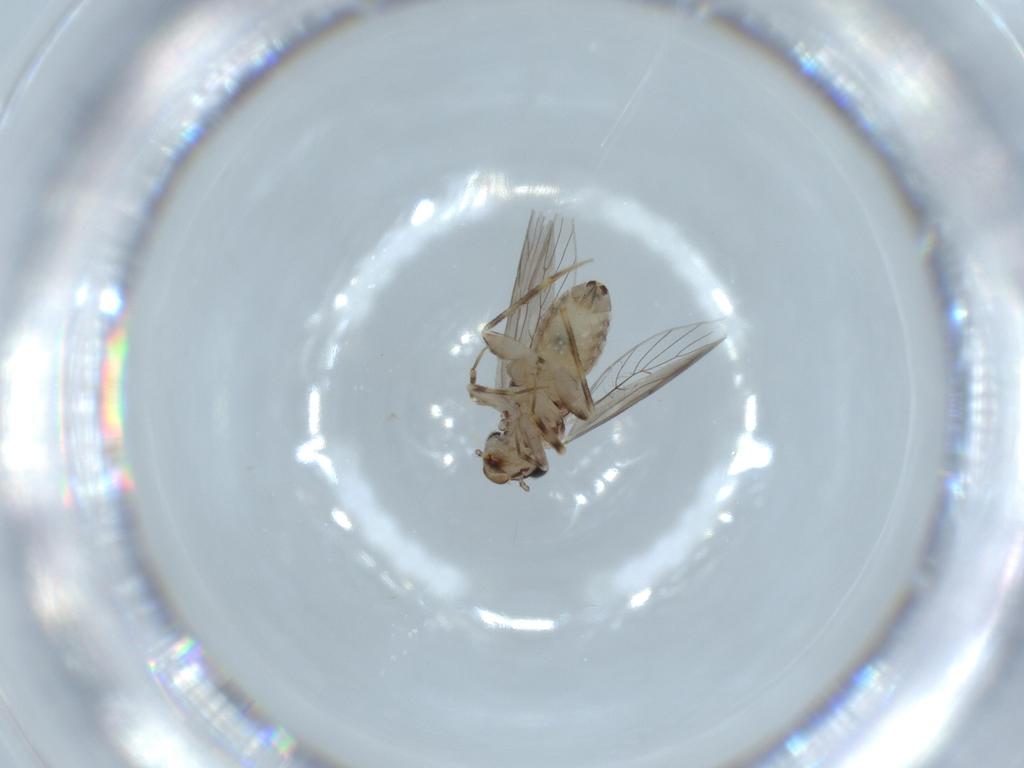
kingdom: Animalia
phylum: Arthropoda
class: Insecta
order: Psocodea
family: Lepidopsocidae
